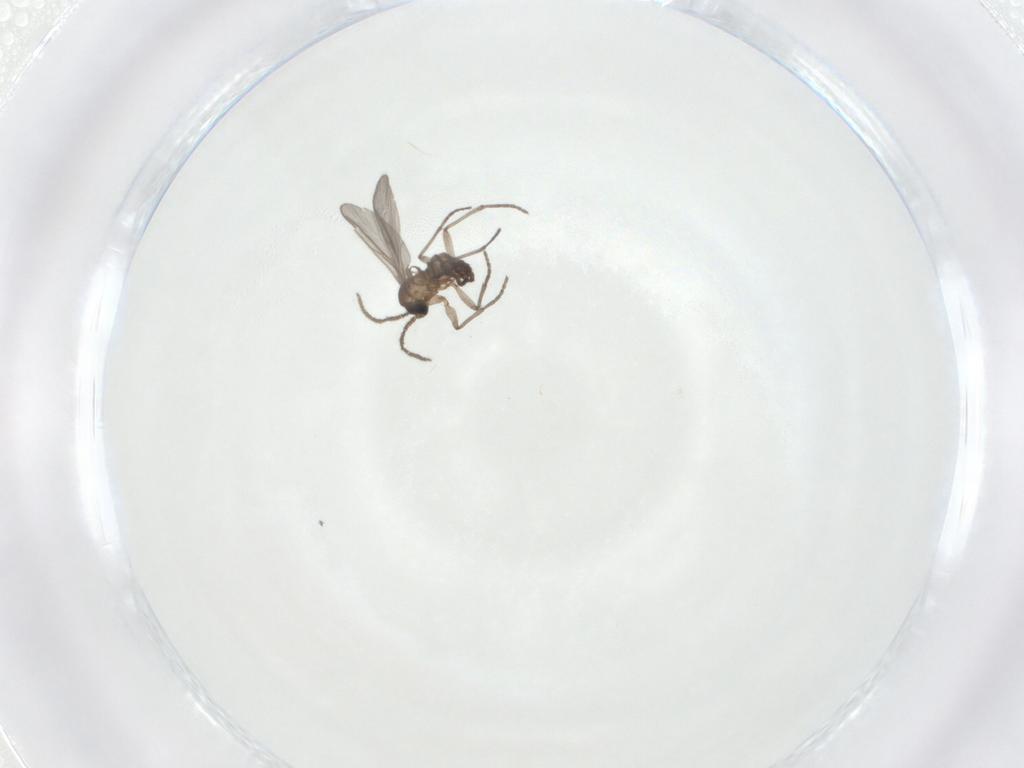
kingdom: Animalia
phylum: Arthropoda
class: Insecta
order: Diptera
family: Sciaridae
